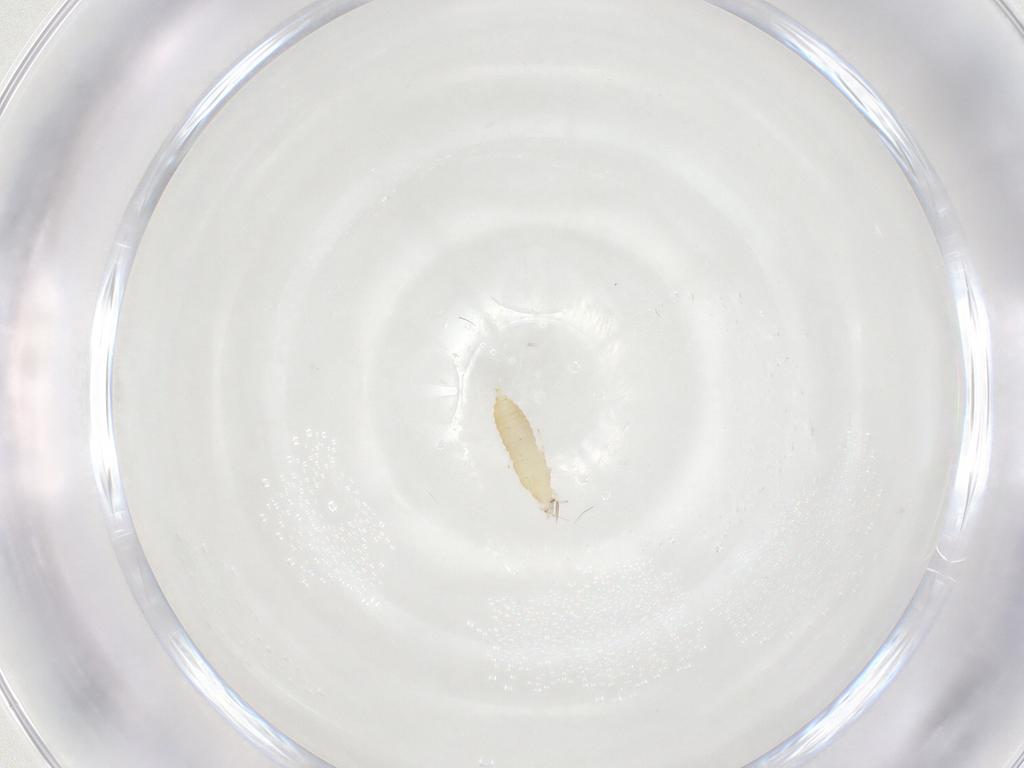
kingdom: Animalia
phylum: Arthropoda
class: Insecta
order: Thysanoptera
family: Thripidae
